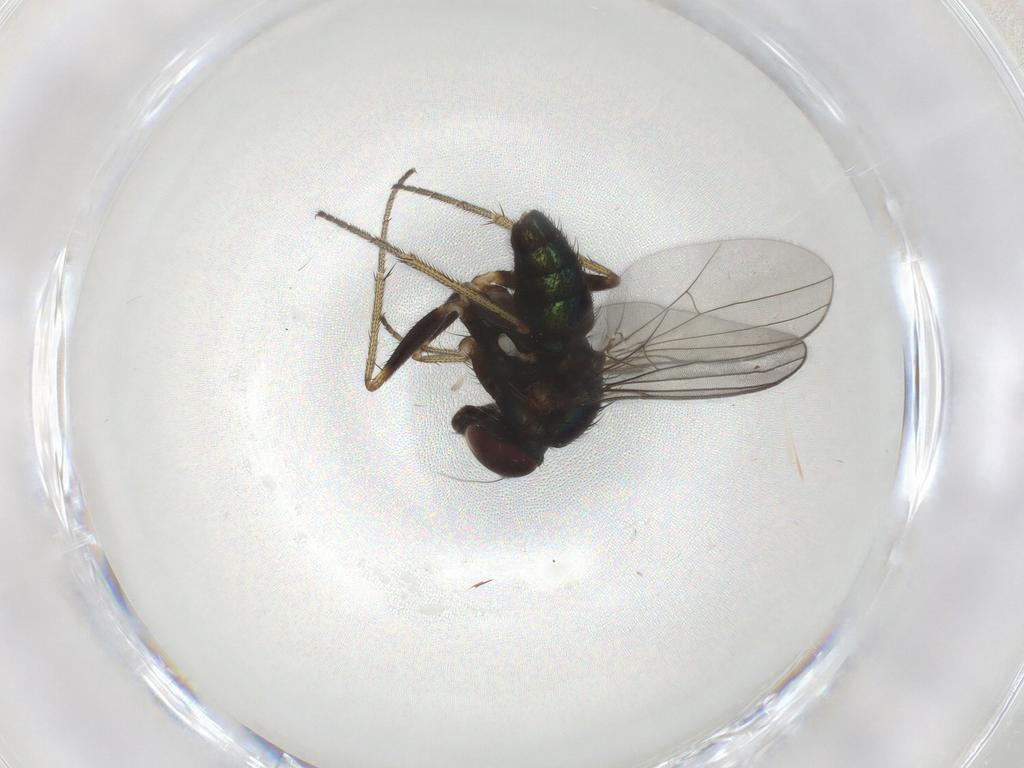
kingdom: Animalia
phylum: Arthropoda
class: Insecta
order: Diptera
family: Dolichopodidae
